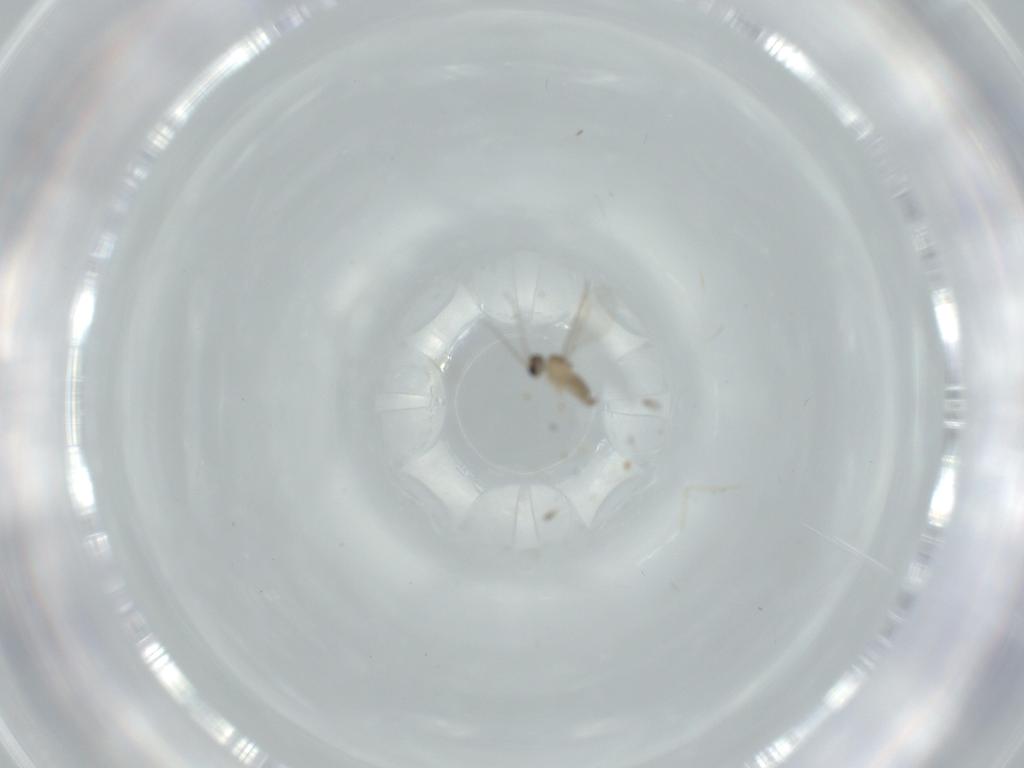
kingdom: Animalia
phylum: Arthropoda
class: Insecta
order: Diptera
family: Cecidomyiidae
